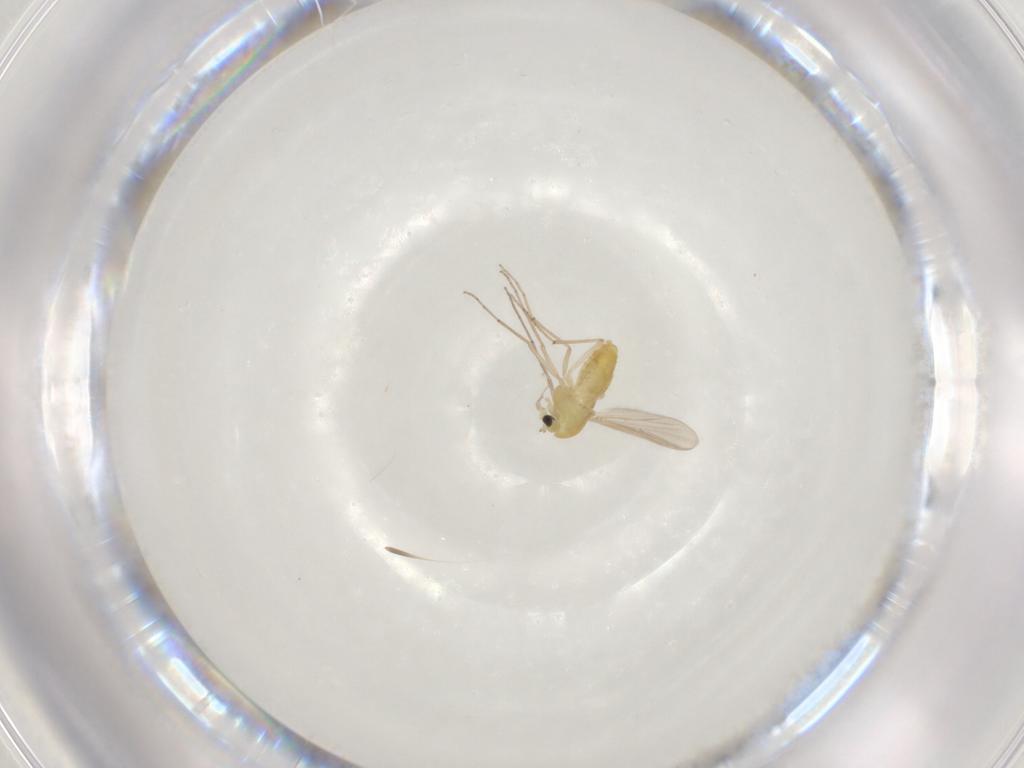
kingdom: Animalia
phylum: Arthropoda
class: Insecta
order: Diptera
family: Chironomidae
